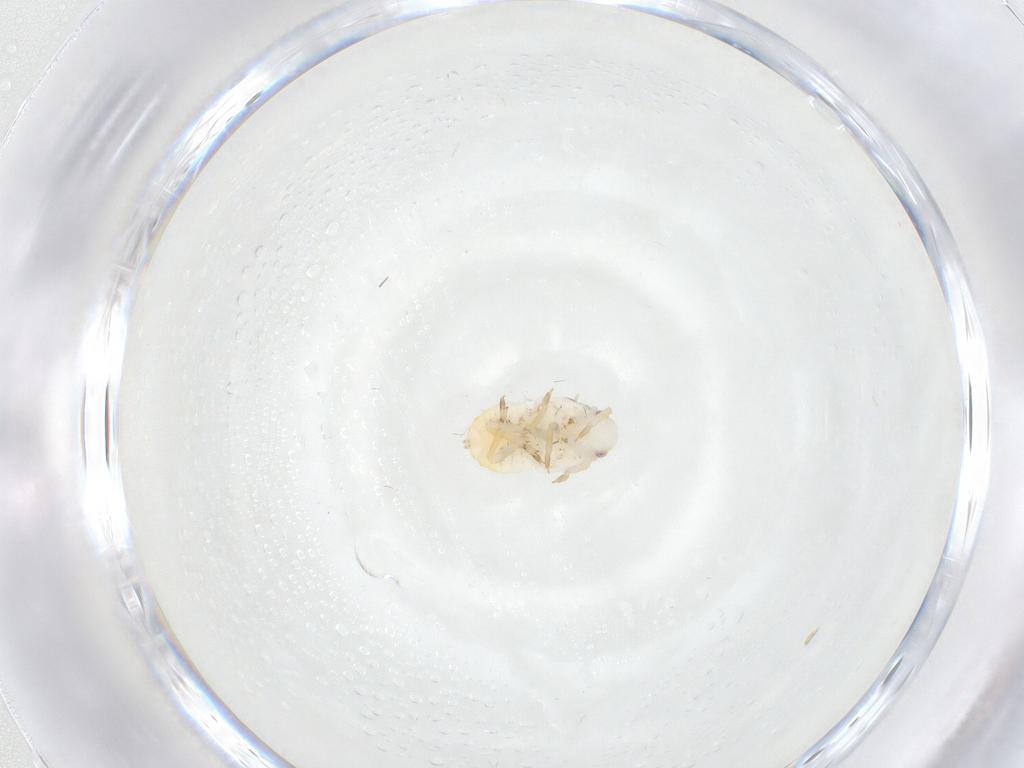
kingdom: Animalia
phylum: Arthropoda
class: Insecta
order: Hemiptera
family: Flatidae
